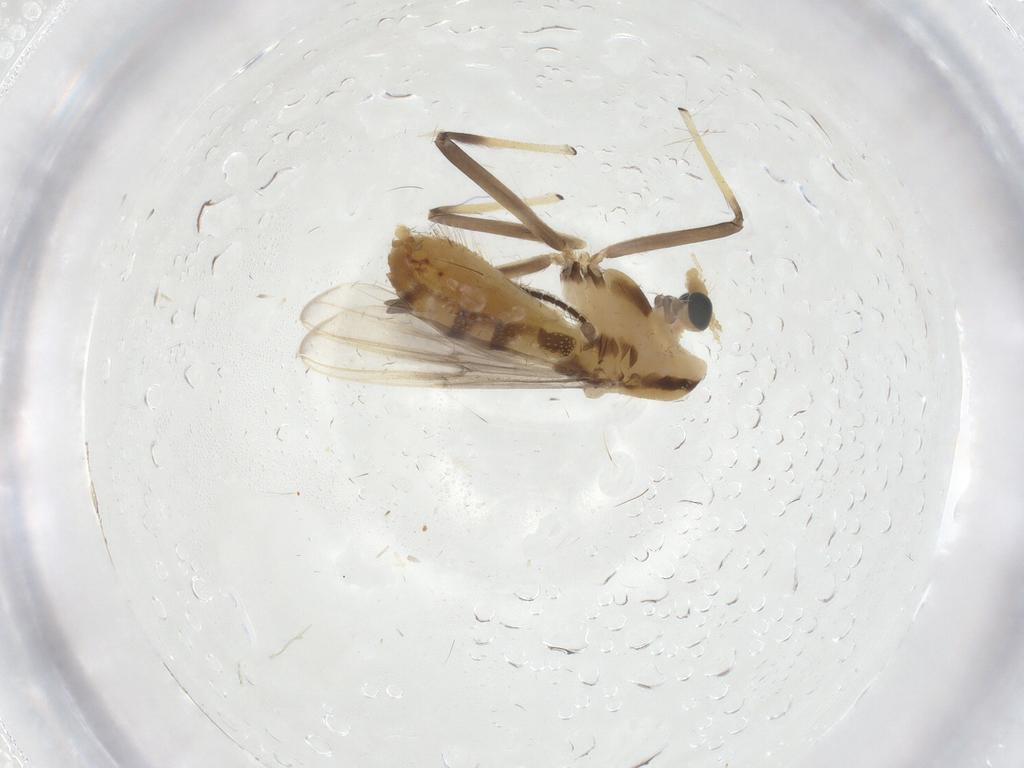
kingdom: Animalia
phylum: Arthropoda
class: Insecta
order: Diptera
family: Chironomidae
